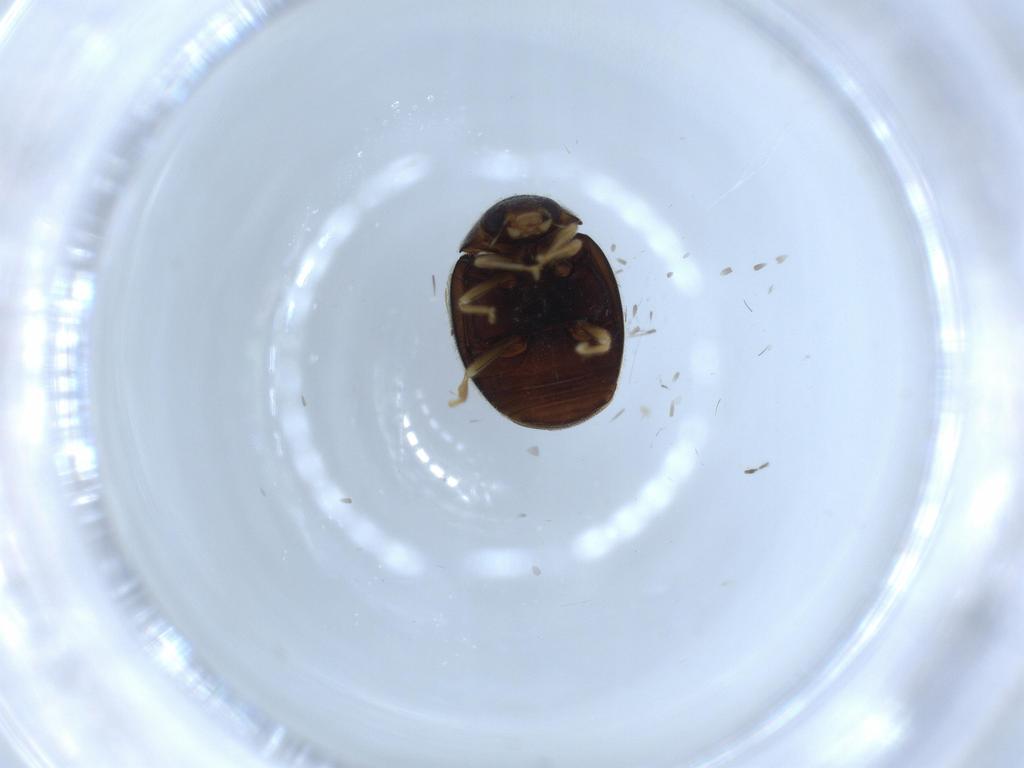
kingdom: Animalia
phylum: Arthropoda
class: Insecta
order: Coleoptera
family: Coccinellidae
